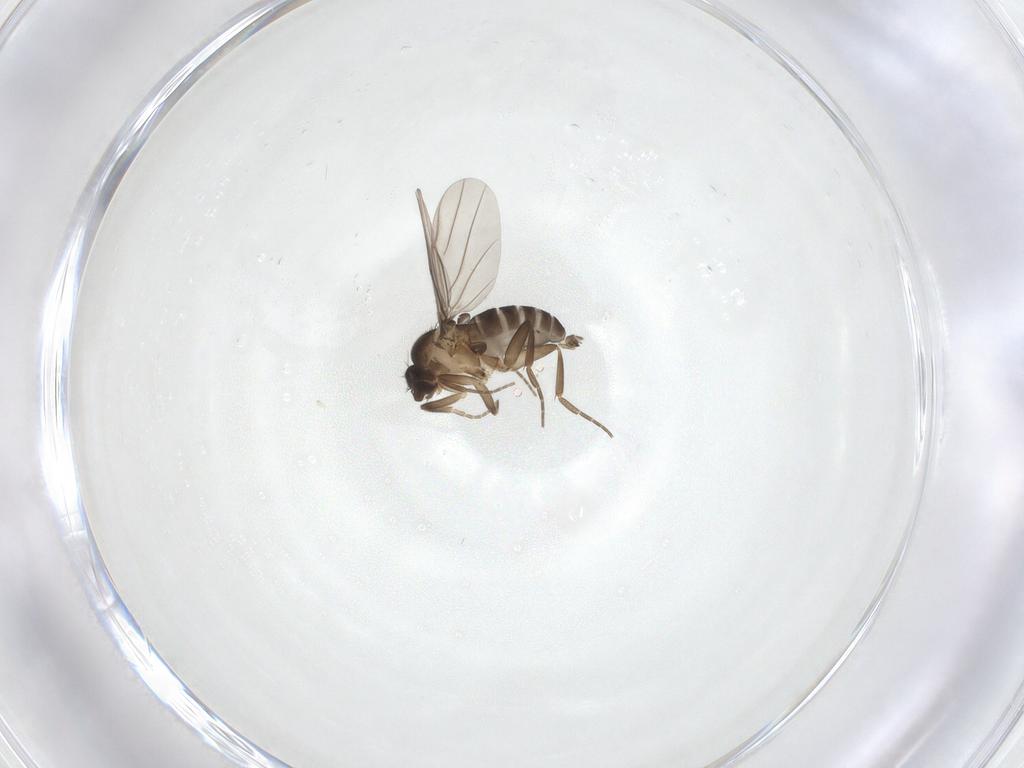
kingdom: Animalia
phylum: Arthropoda
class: Insecta
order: Diptera
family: Phoridae
